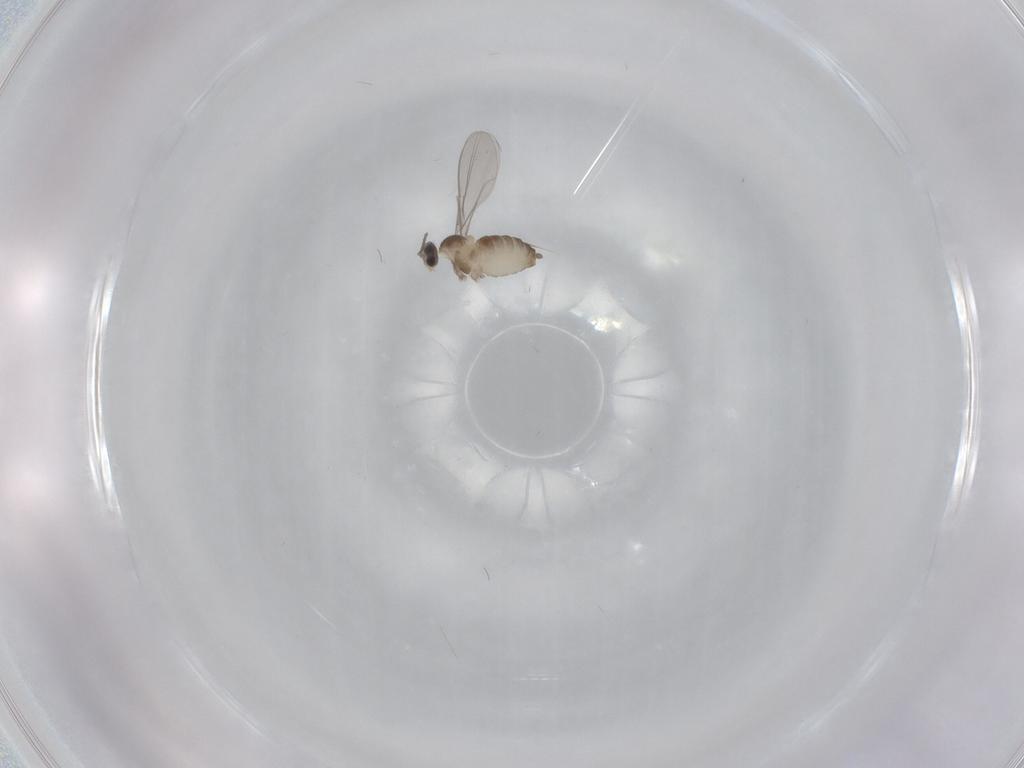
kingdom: Animalia
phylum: Arthropoda
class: Insecta
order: Diptera
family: Cecidomyiidae
